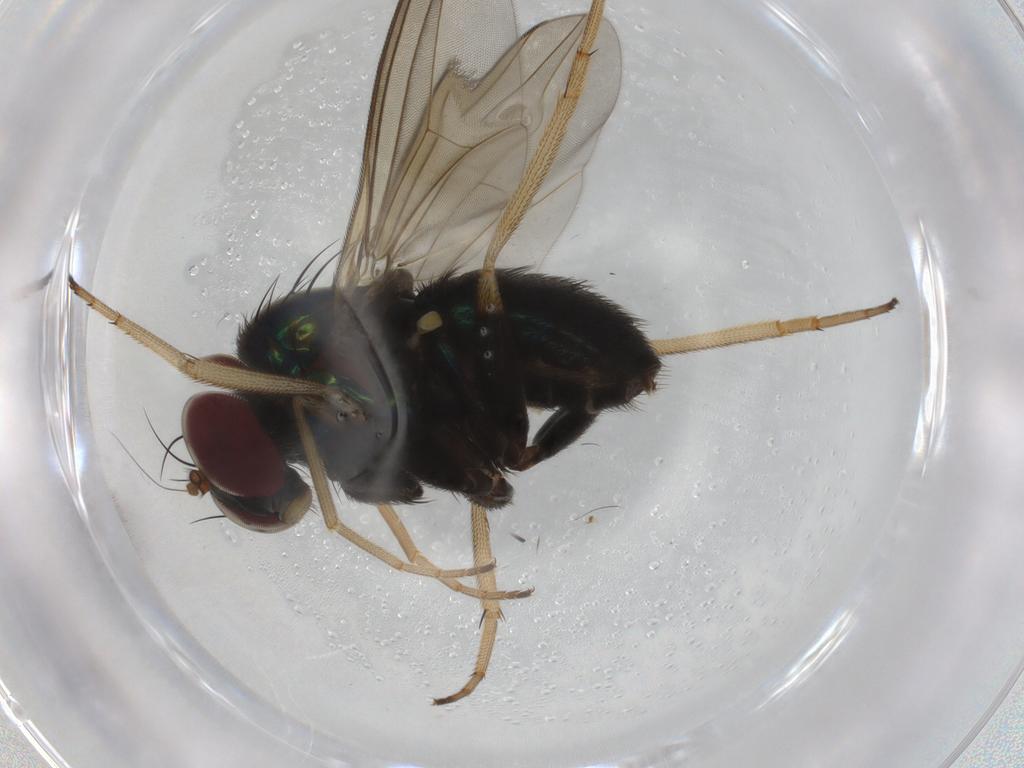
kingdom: Animalia
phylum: Arthropoda
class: Insecta
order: Diptera
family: Dolichopodidae
